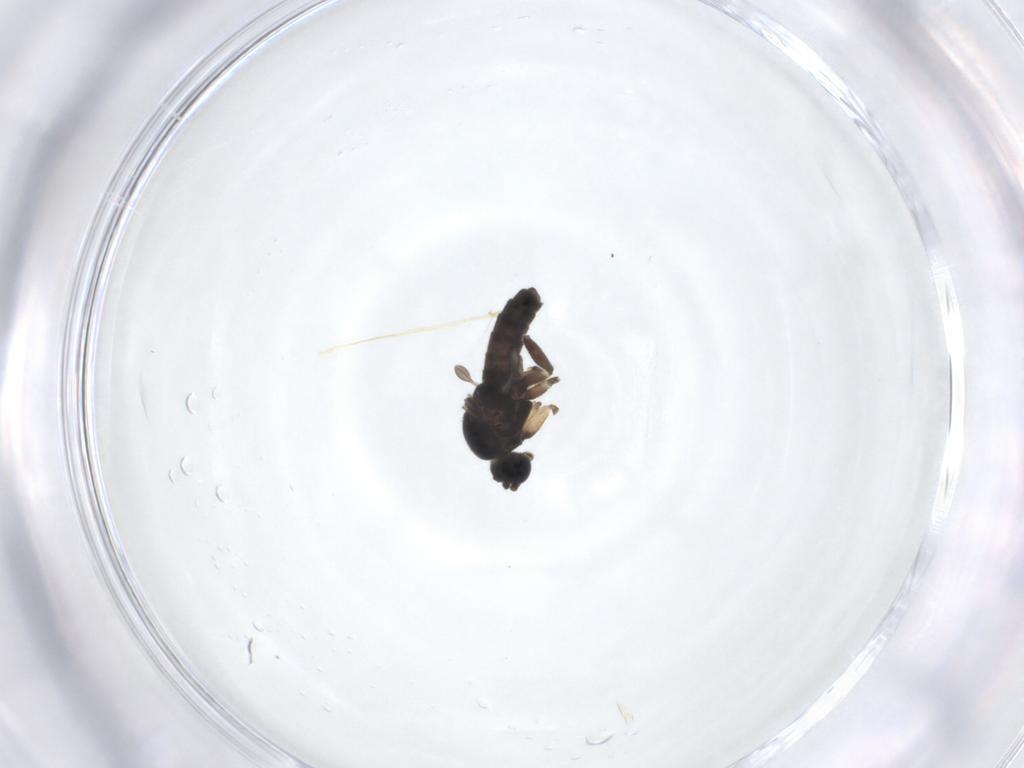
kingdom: Animalia
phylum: Arthropoda
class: Insecta
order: Diptera
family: Sciaridae
